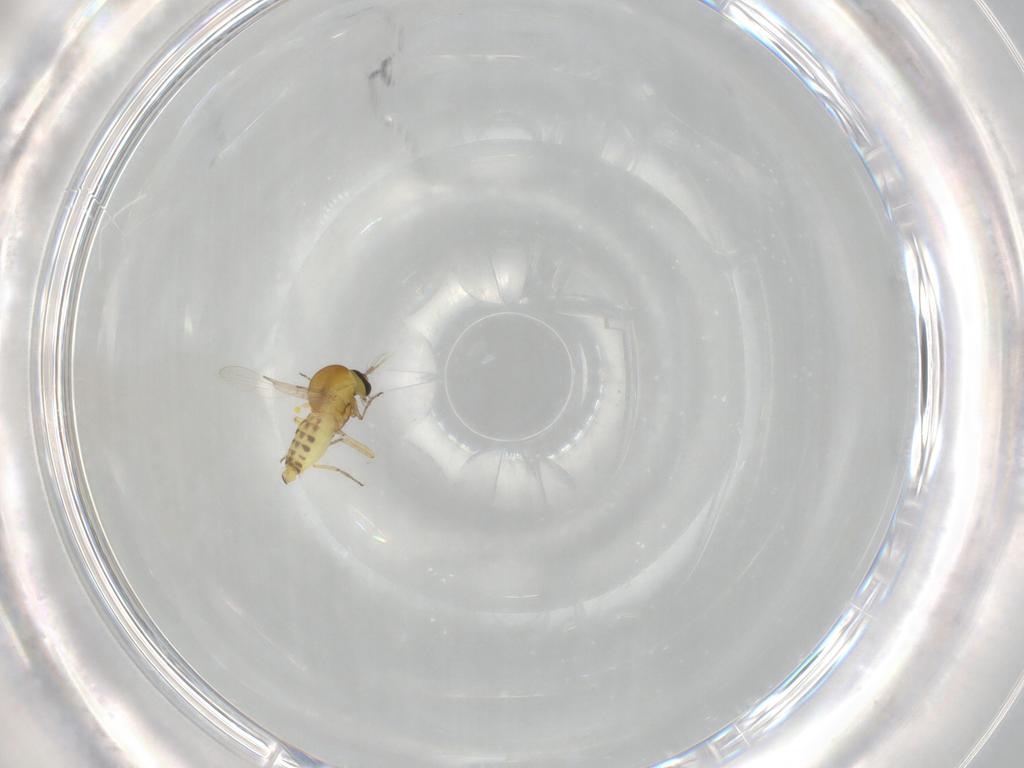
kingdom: Animalia
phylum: Arthropoda
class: Insecta
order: Diptera
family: Ceratopogonidae
